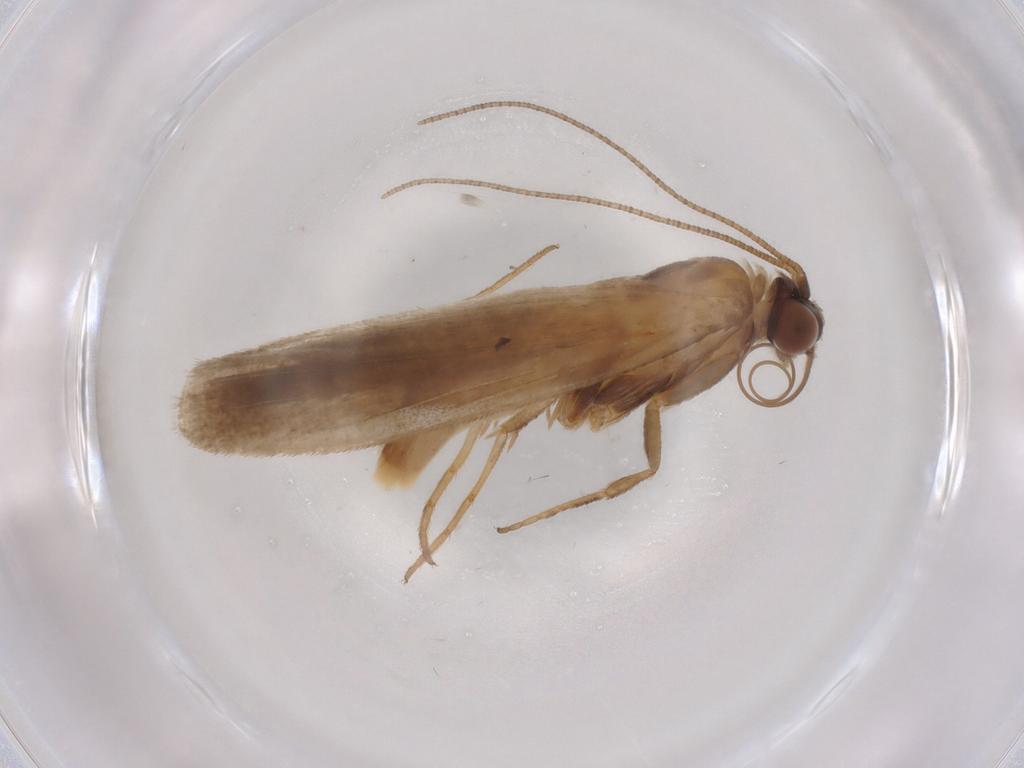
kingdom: Animalia
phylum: Arthropoda
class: Insecta
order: Lepidoptera
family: Noctuidae
